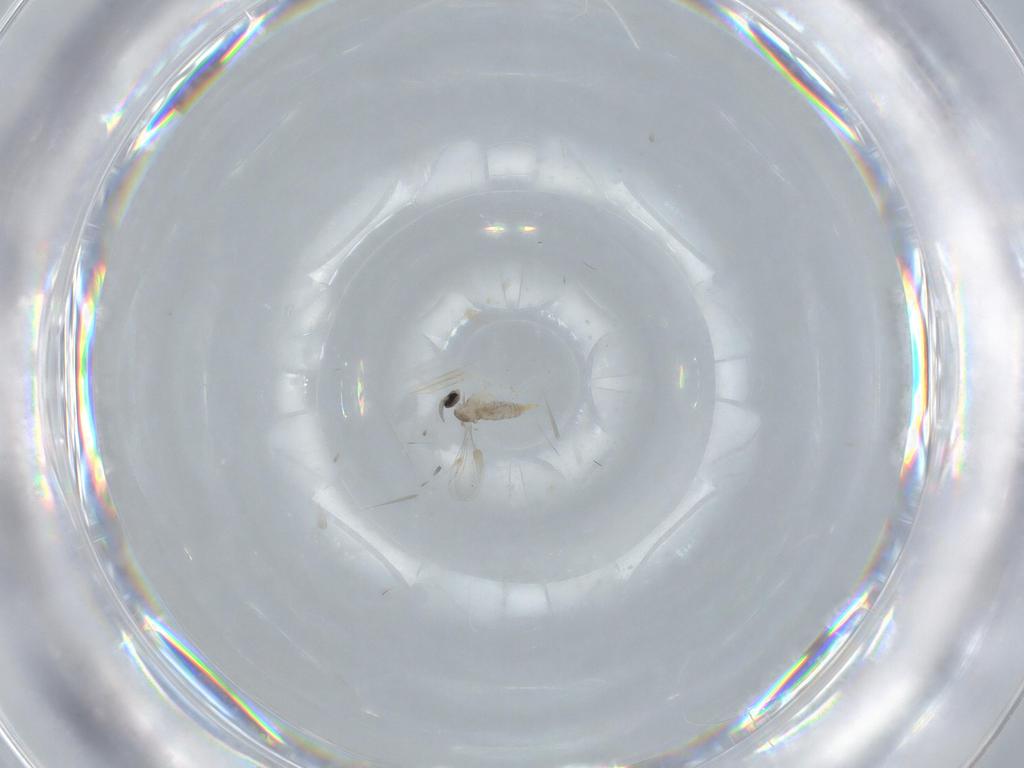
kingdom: Animalia
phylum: Arthropoda
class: Insecta
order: Diptera
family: Cecidomyiidae
